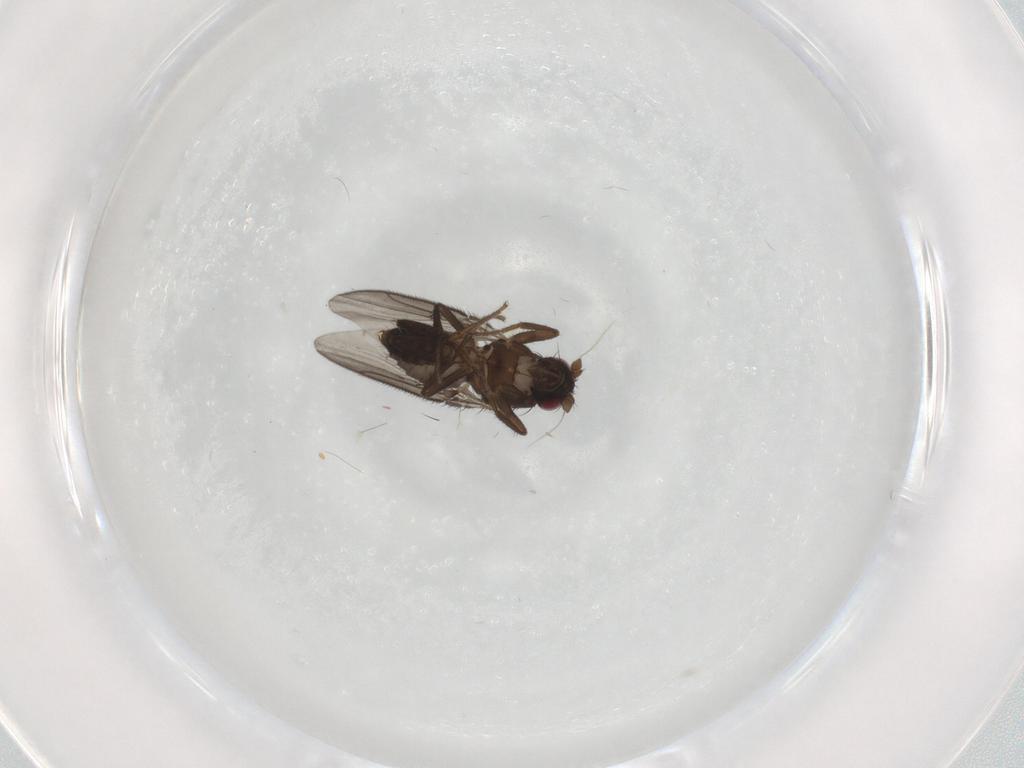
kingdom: Animalia
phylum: Arthropoda
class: Insecta
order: Diptera
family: Sphaeroceridae
